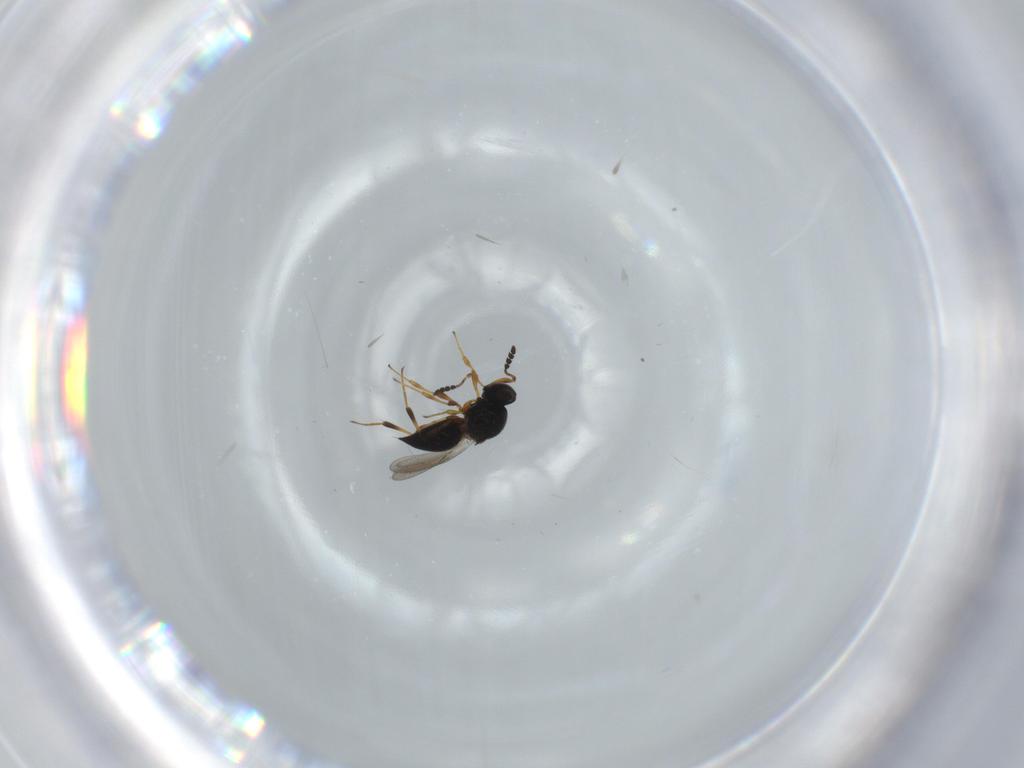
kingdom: Animalia
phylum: Arthropoda
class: Insecta
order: Hymenoptera
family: Platygastridae
